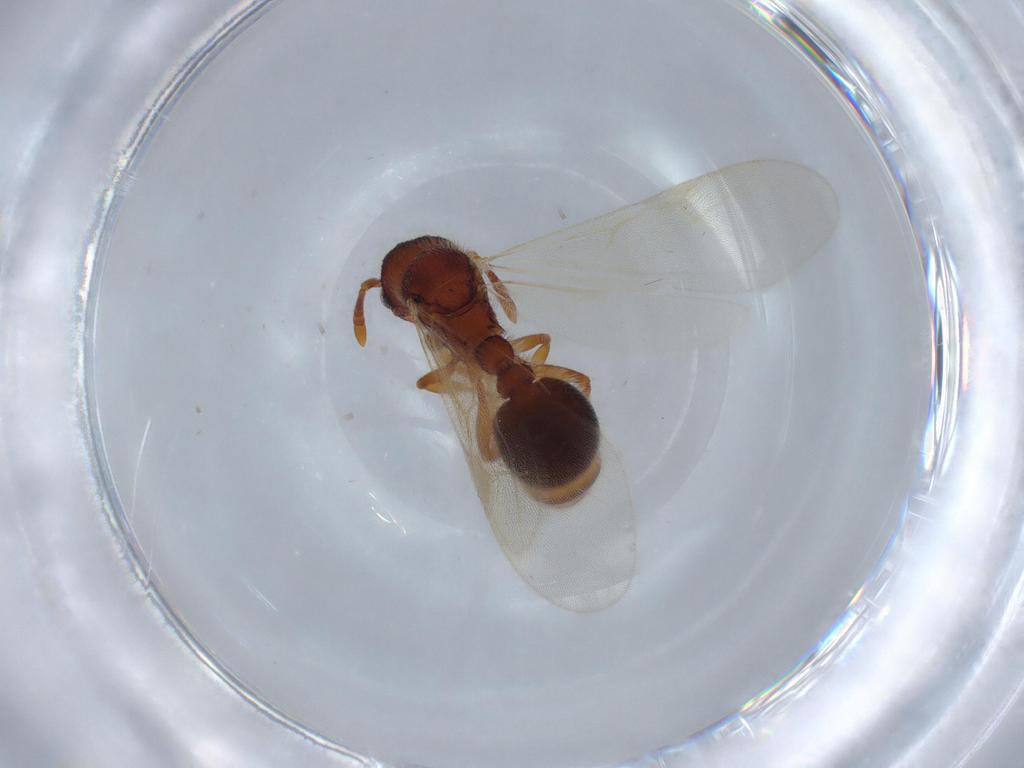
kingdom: Animalia
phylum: Arthropoda
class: Insecta
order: Hymenoptera
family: Formicidae
